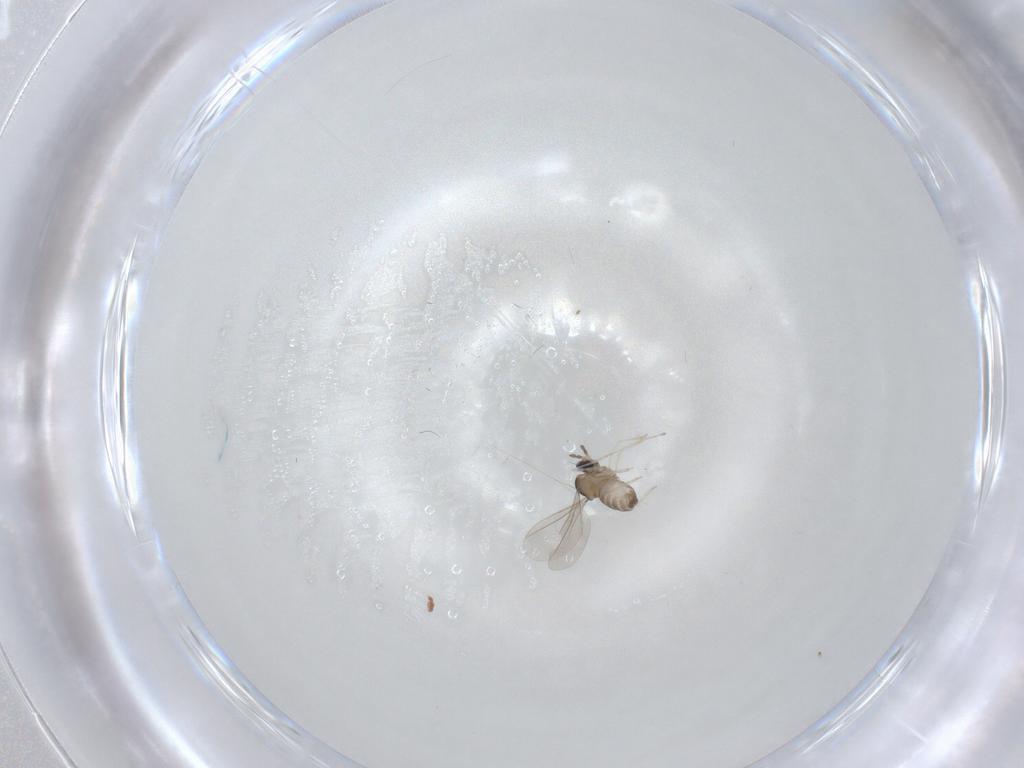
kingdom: Animalia
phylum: Arthropoda
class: Insecta
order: Diptera
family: Cecidomyiidae
